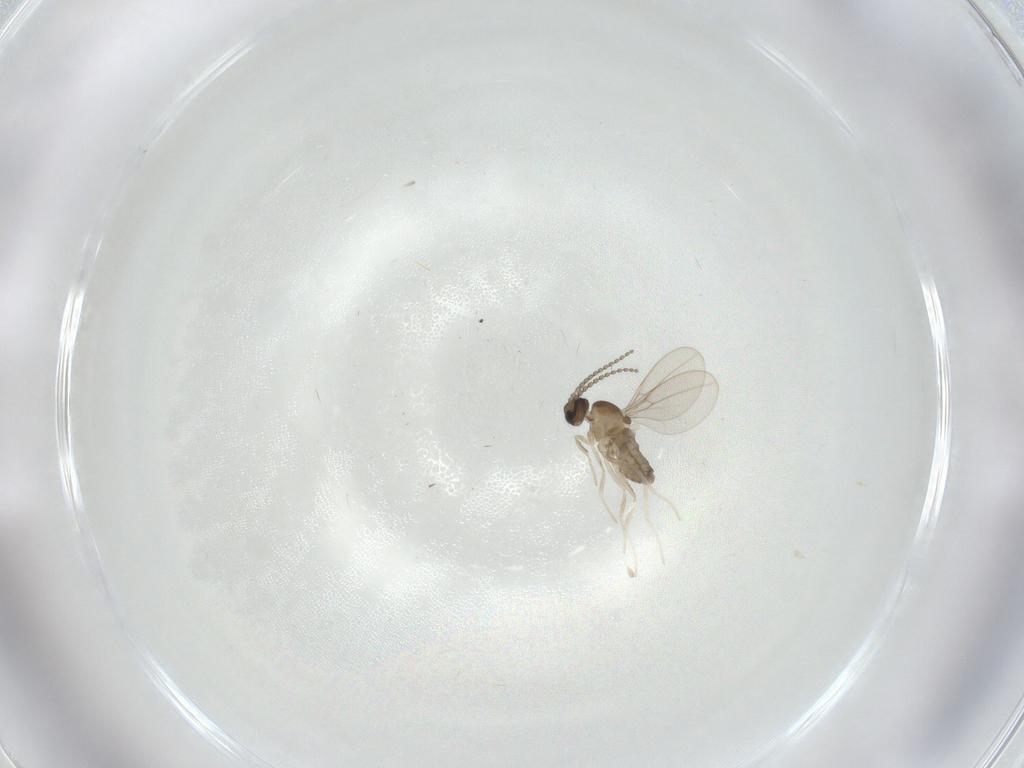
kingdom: Animalia
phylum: Arthropoda
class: Insecta
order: Diptera
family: Cecidomyiidae
